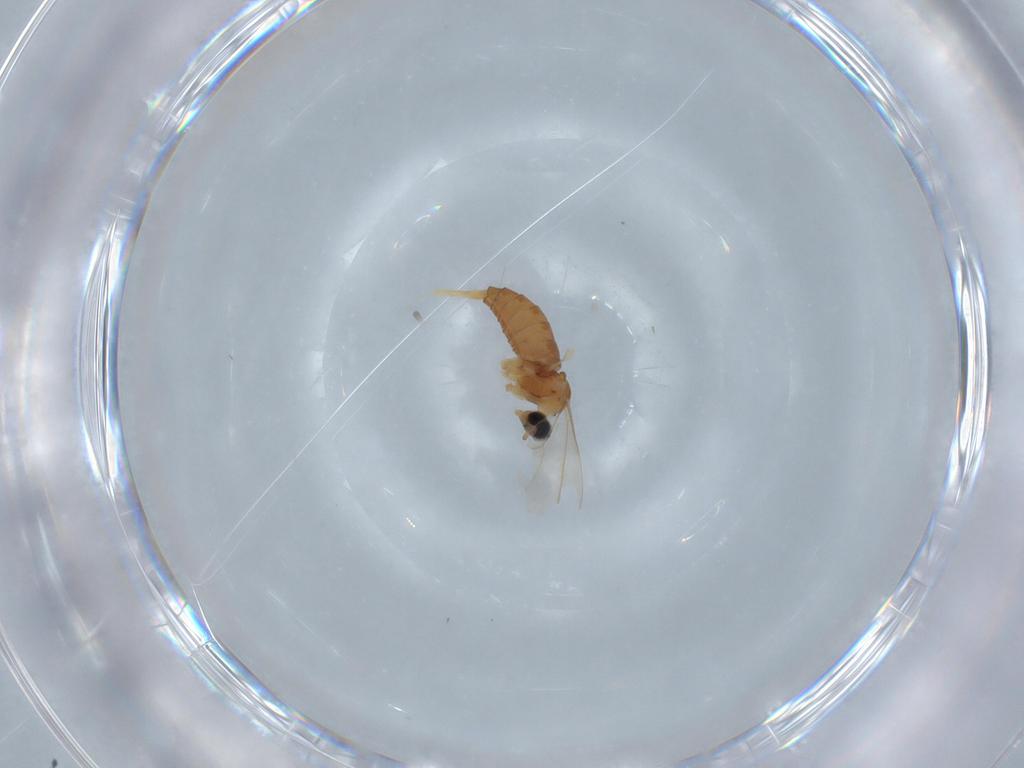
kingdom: Animalia
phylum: Arthropoda
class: Insecta
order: Diptera
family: Cecidomyiidae
